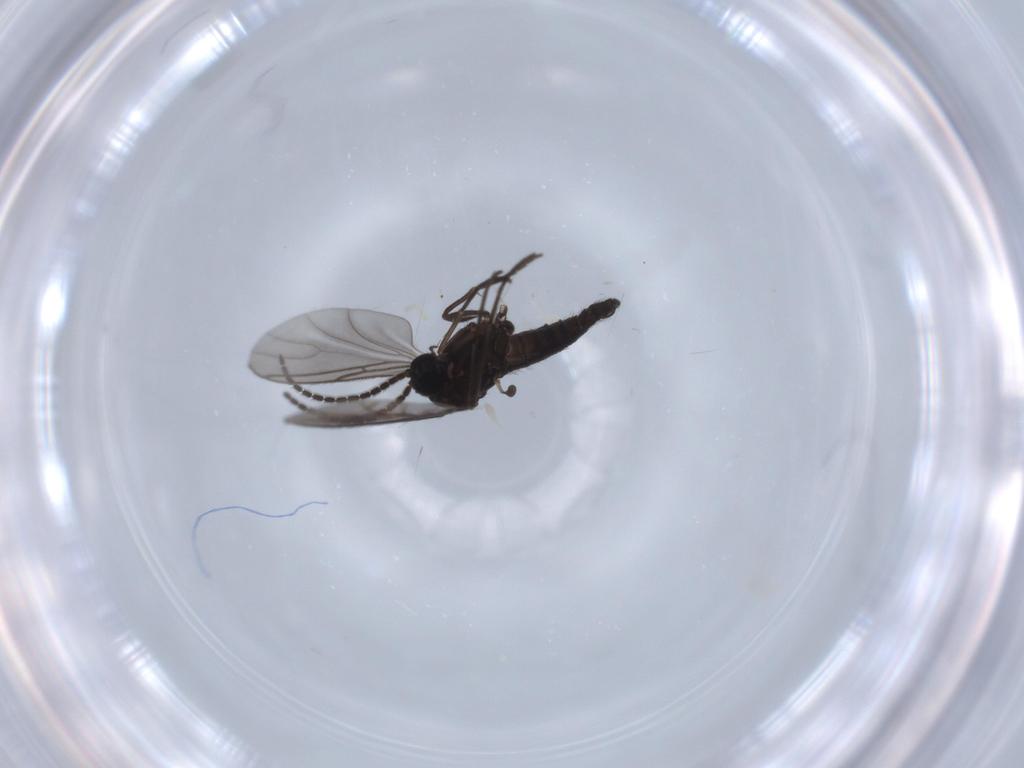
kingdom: Animalia
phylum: Arthropoda
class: Insecta
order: Diptera
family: Sciaridae
